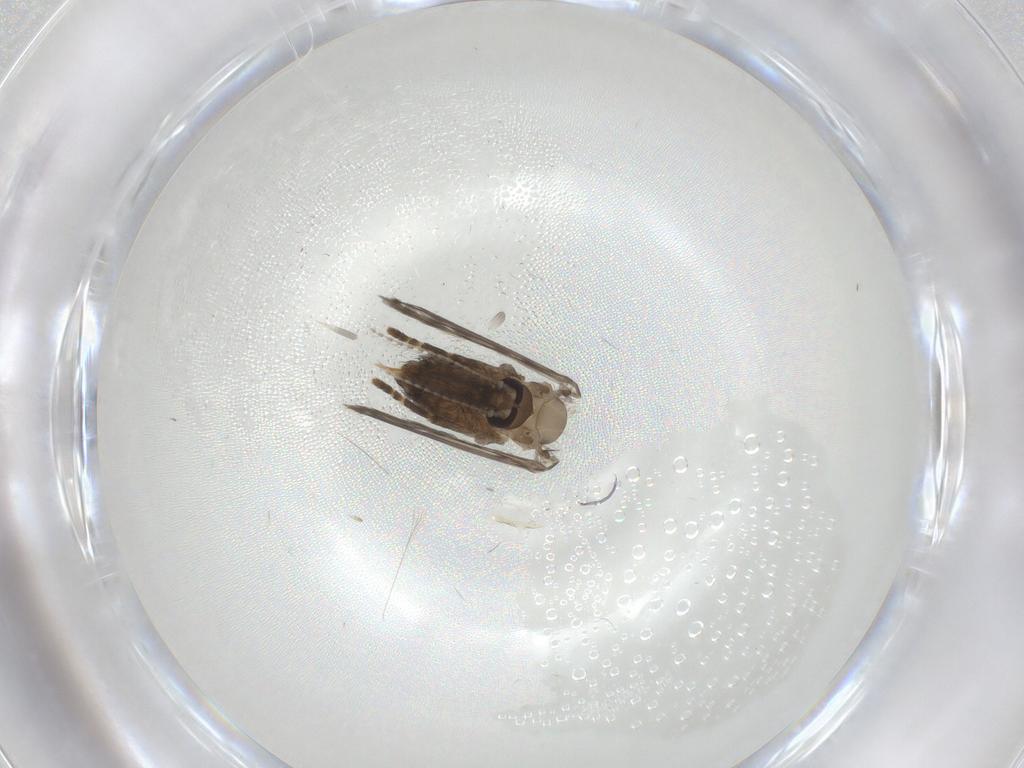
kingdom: Animalia
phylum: Arthropoda
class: Insecta
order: Diptera
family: Psychodidae
